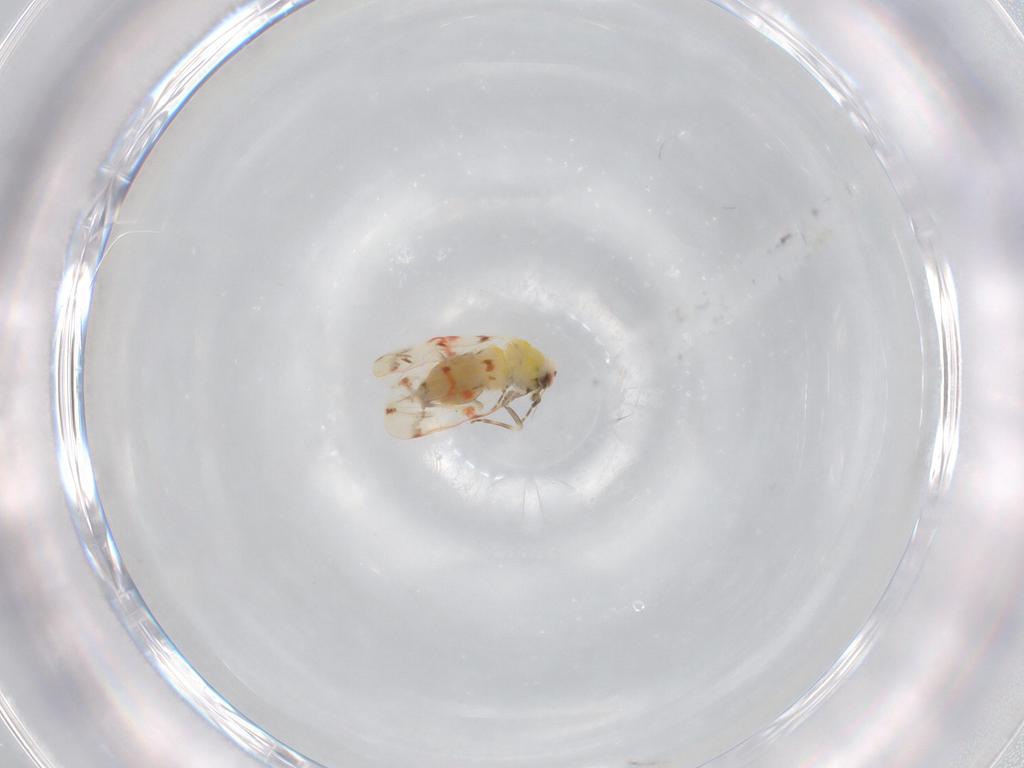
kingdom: Animalia
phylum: Arthropoda
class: Insecta
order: Hemiptera
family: Aleyrodidae
